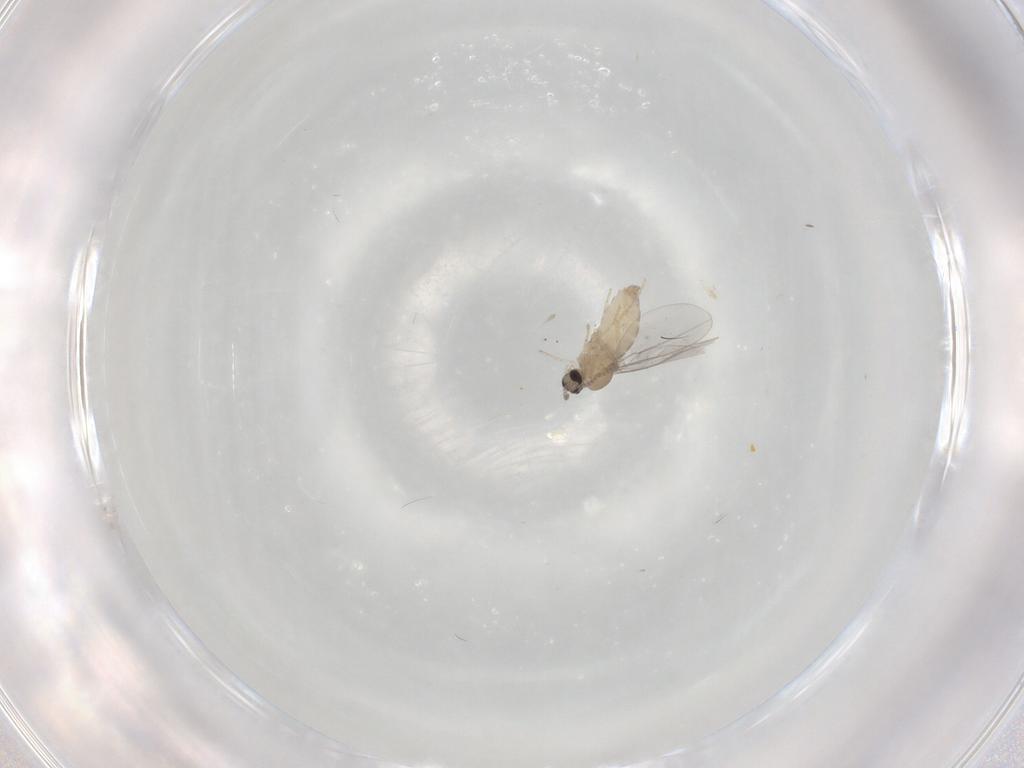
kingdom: Animalia
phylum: Arthropoda
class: Insecta
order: Diptera
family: Cecidomyiidae
